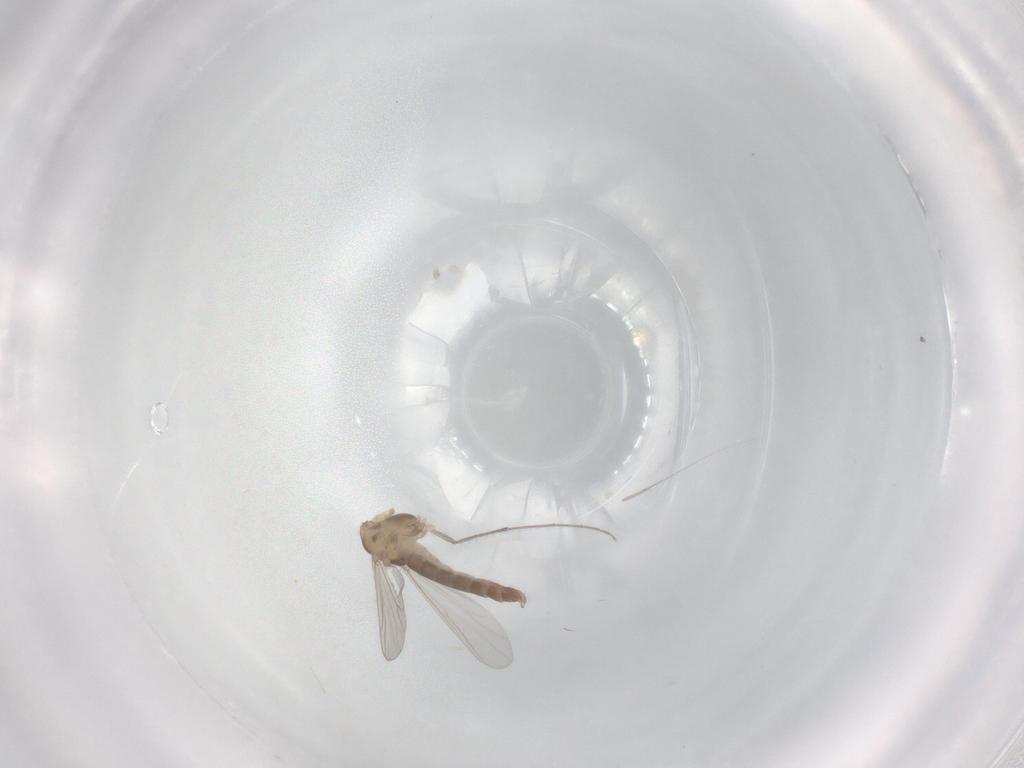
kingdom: Animalia
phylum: Arthropoda
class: Insecta
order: Diptera
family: Chironomidae
